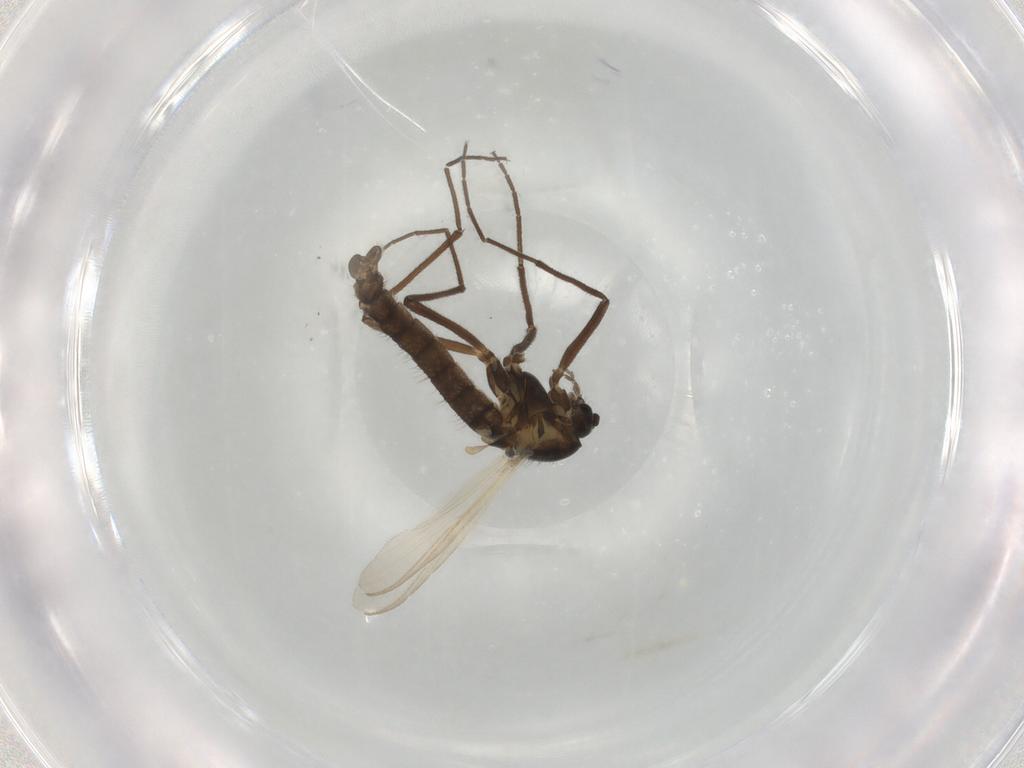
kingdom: Animalia
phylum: Arthropoda
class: Insecta
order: Diptera
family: Chironomidae
